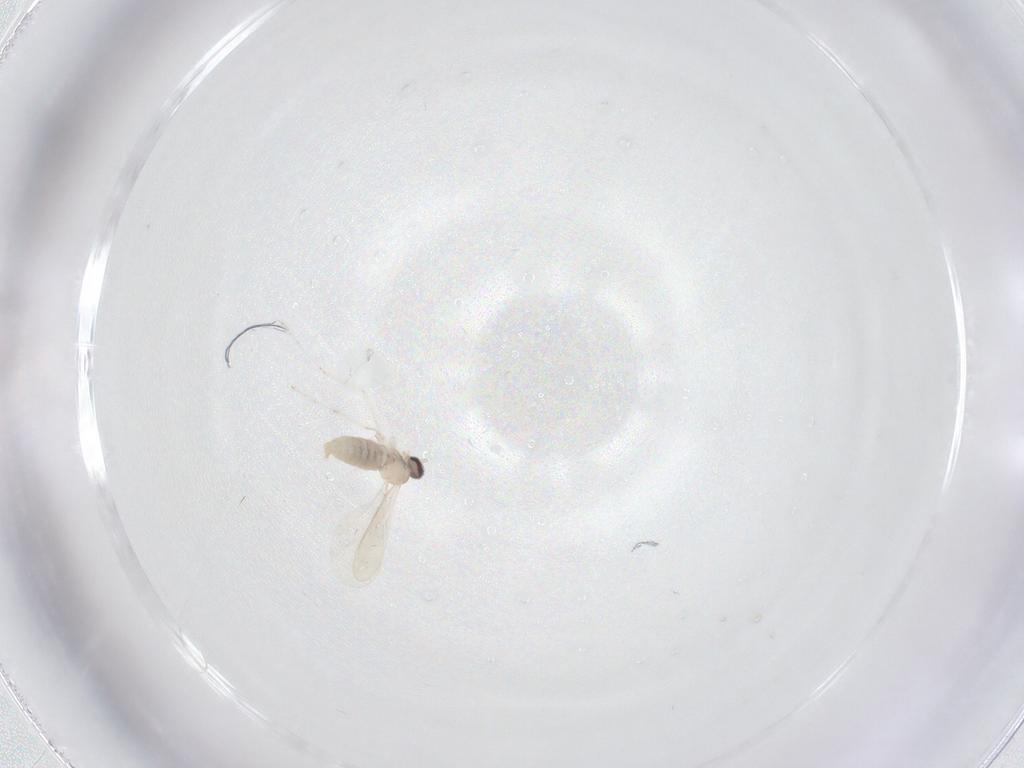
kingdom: Animalia
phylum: Arthropoda
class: Insecta
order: Diptera
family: Cecidomyiidae
